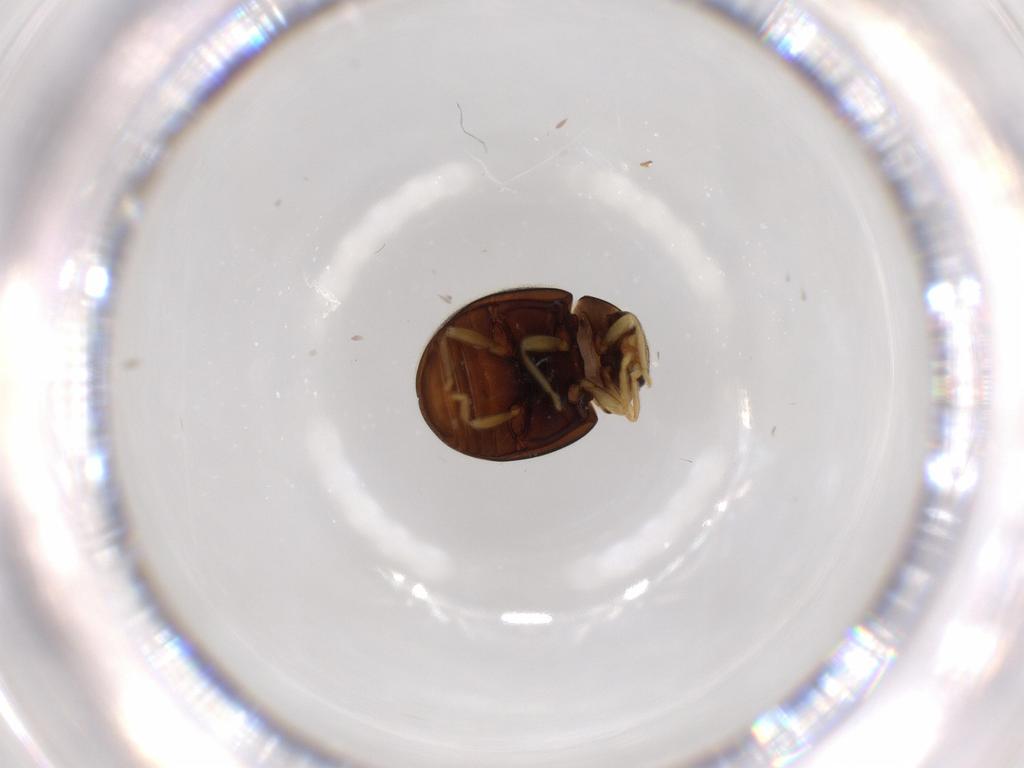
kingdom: Animalia
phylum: Arthropoda
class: Insecta
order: Coleoptera
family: Coccinellidae
